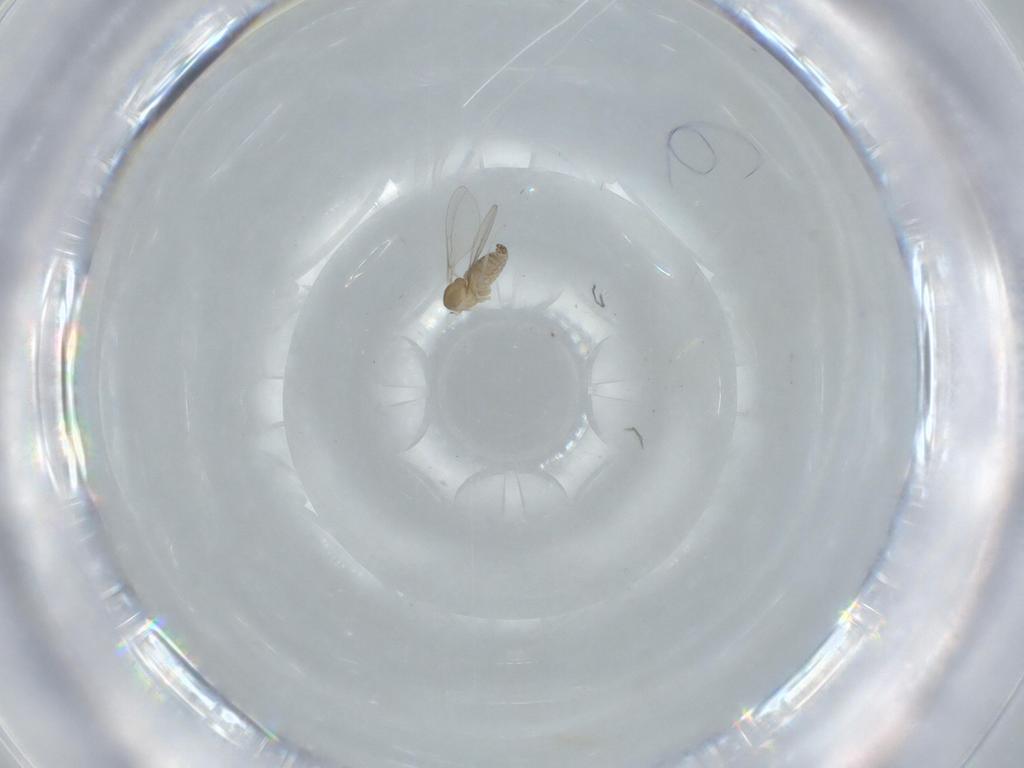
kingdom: Animalia
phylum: Arthropoda
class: Insecta
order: Diptera
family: Cecidomyiidae
